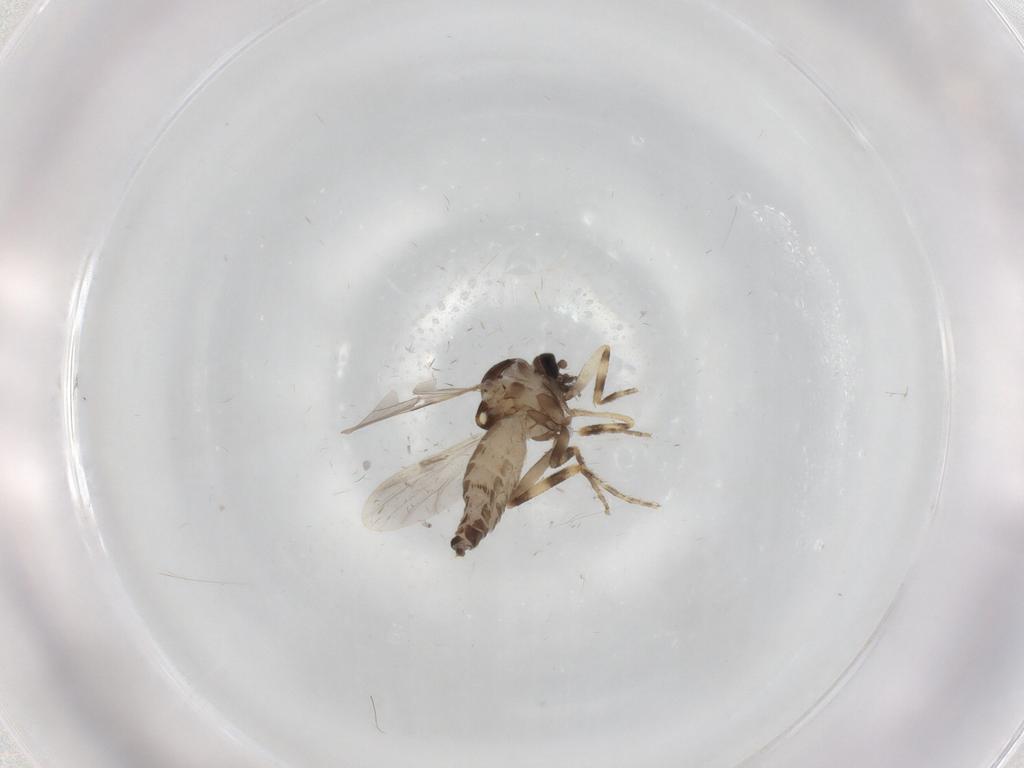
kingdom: Animalia
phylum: Arthropoda
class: Insecta
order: Diptera
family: Ceratopogonidae
